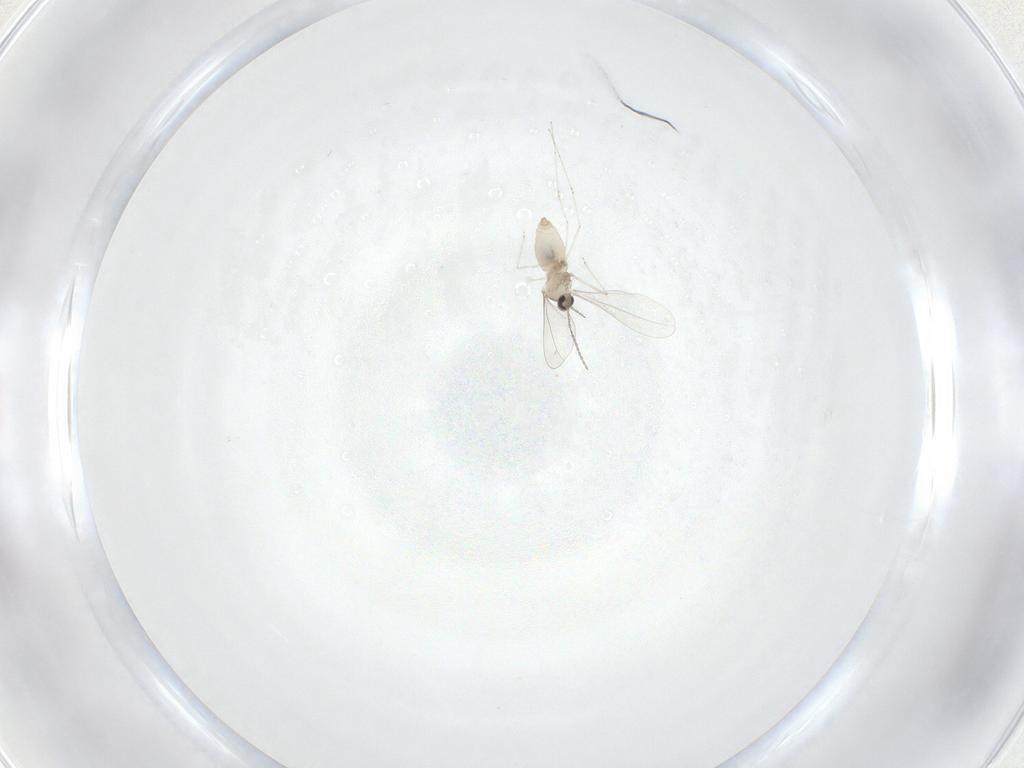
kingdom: Animalia
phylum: Arthropoda
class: Insecta
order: Diptera
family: Cecidomyiidae
